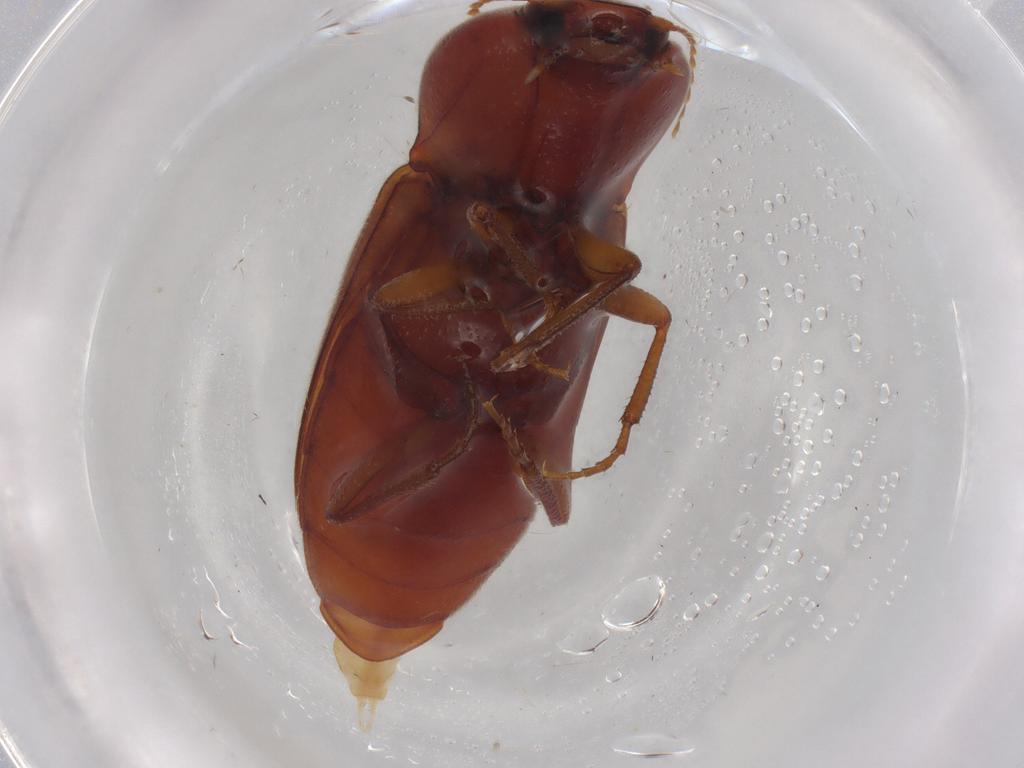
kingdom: Animalia
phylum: Arthropoda
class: Insecta
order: Coleoptera
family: Elateridae
